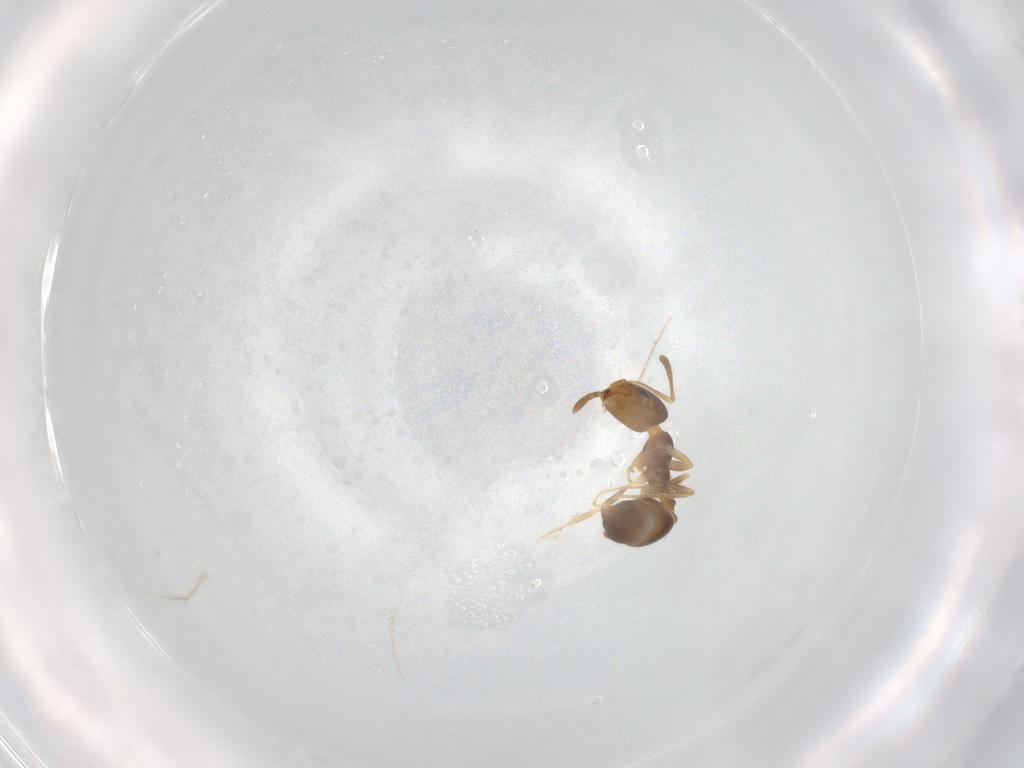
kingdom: Animalia
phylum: Arthropoda
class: Insecta
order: Hymenoptera
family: Formicidae
